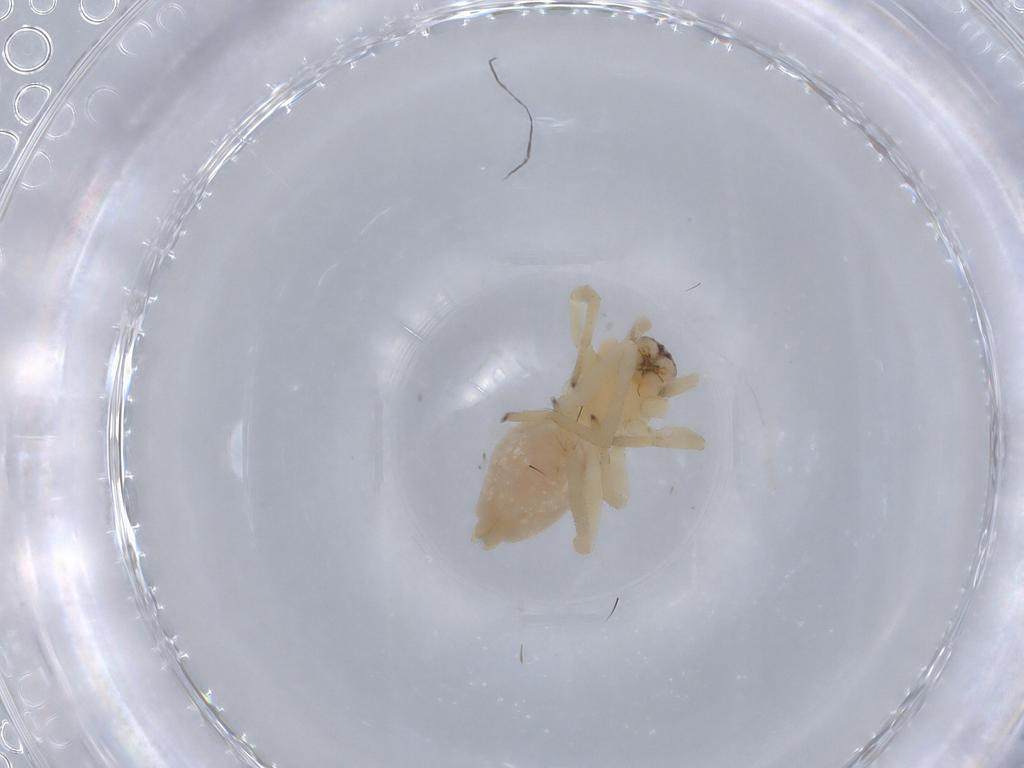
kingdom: Animalia
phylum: Arthropoda
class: Arachnida
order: Araneae
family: Cheiracanthiidae
